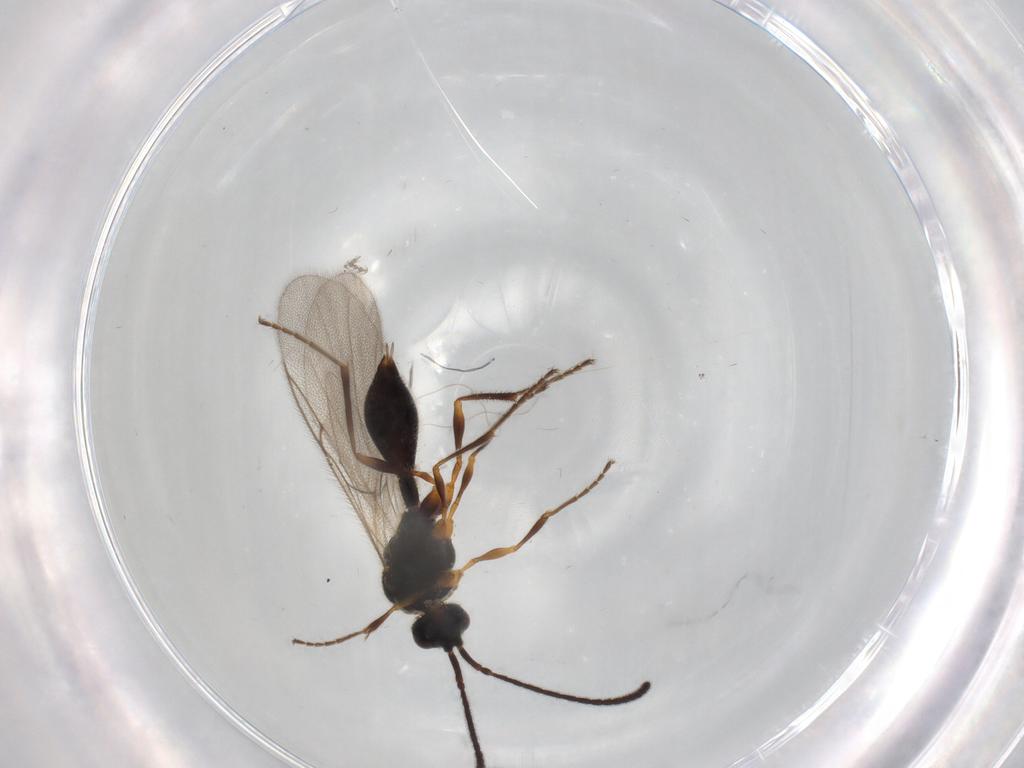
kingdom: Animalia
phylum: Arthropoda
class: Insecta
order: Hymenoptera
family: Diapriidae
